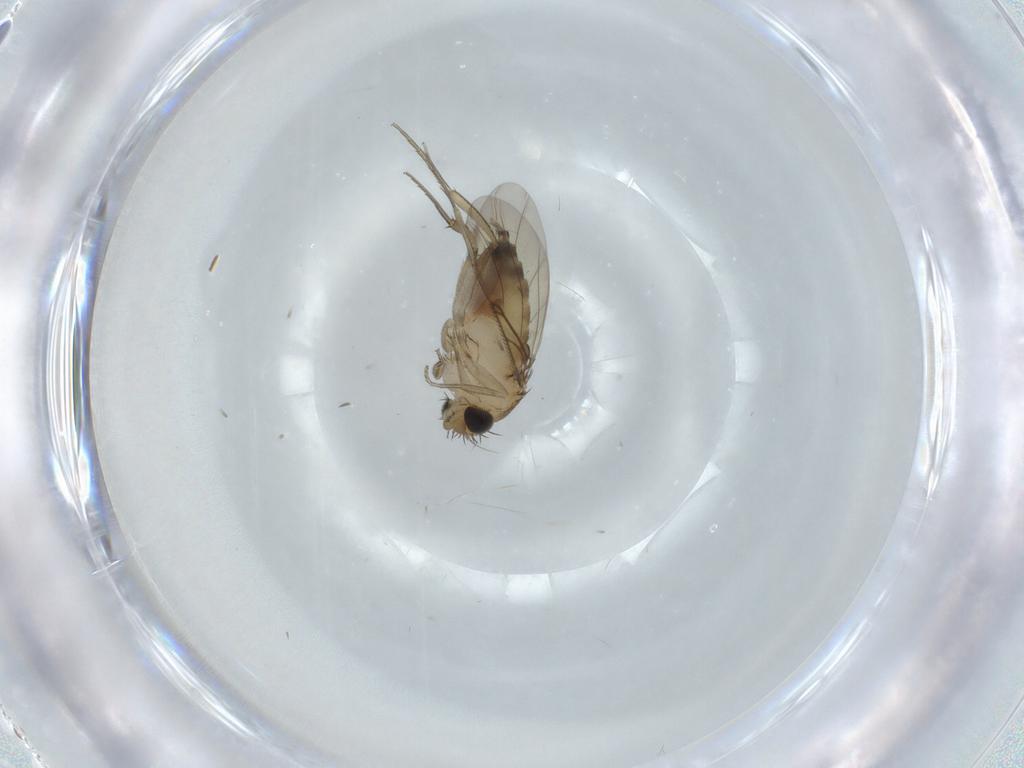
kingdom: Animalia
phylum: Arthropoda
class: Insecta
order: Diptera
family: Phoridae
